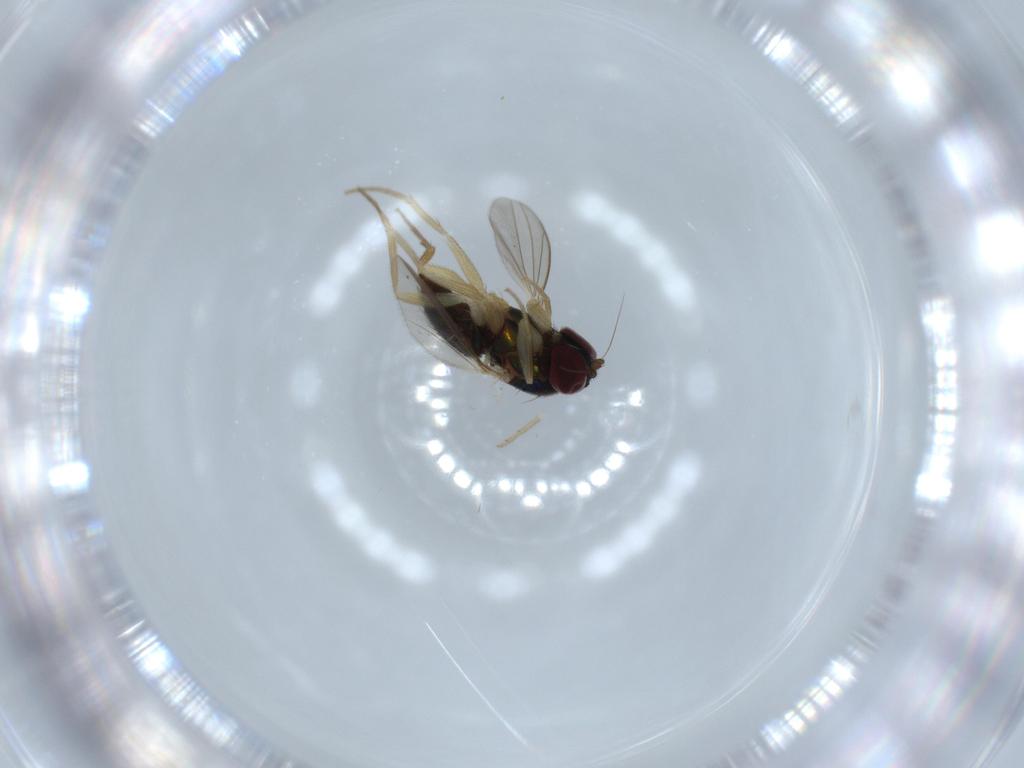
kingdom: Animalia
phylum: Arthropoda
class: Insecta
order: Diptera
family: Dolichopodidae
